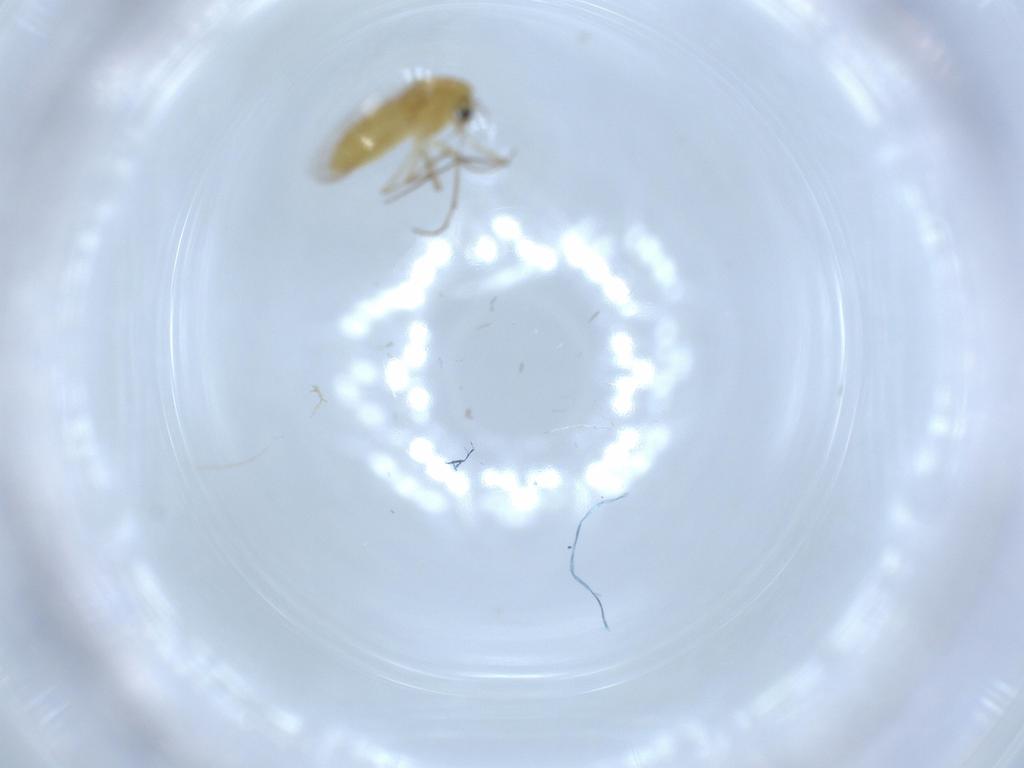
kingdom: Animalia
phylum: Arthropoda
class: Insecta
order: Diptera
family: Chironomidae
